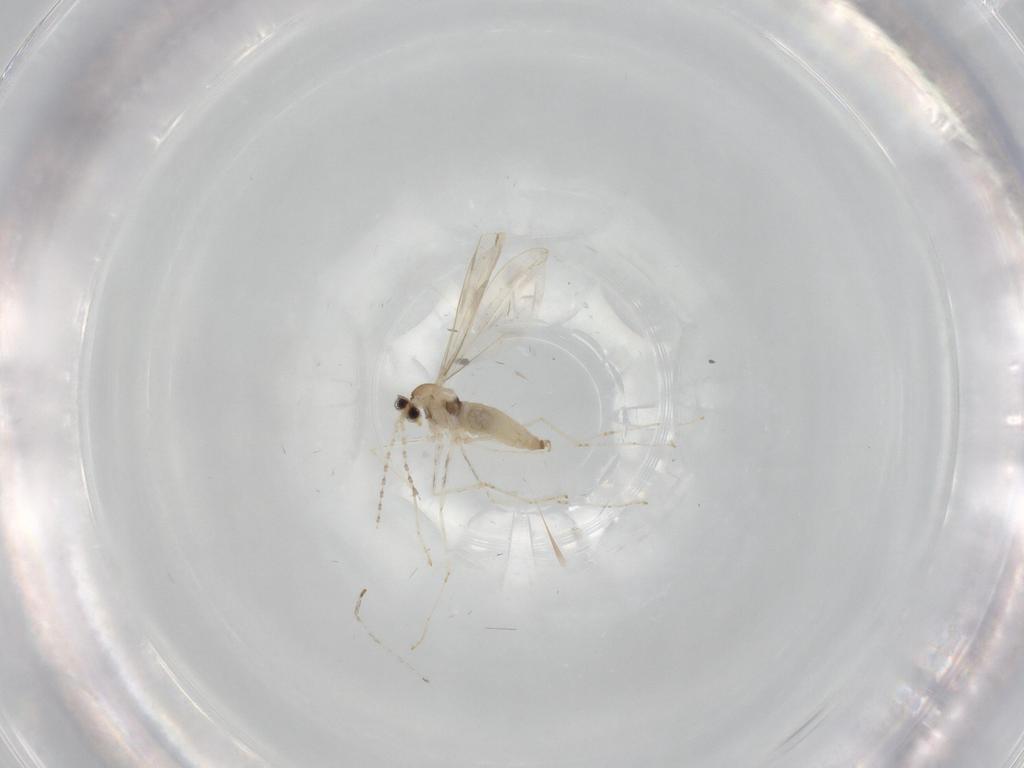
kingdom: Animalia
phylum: Arthropoda
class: Insecta
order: Diptera
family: Cecidomyiidae
